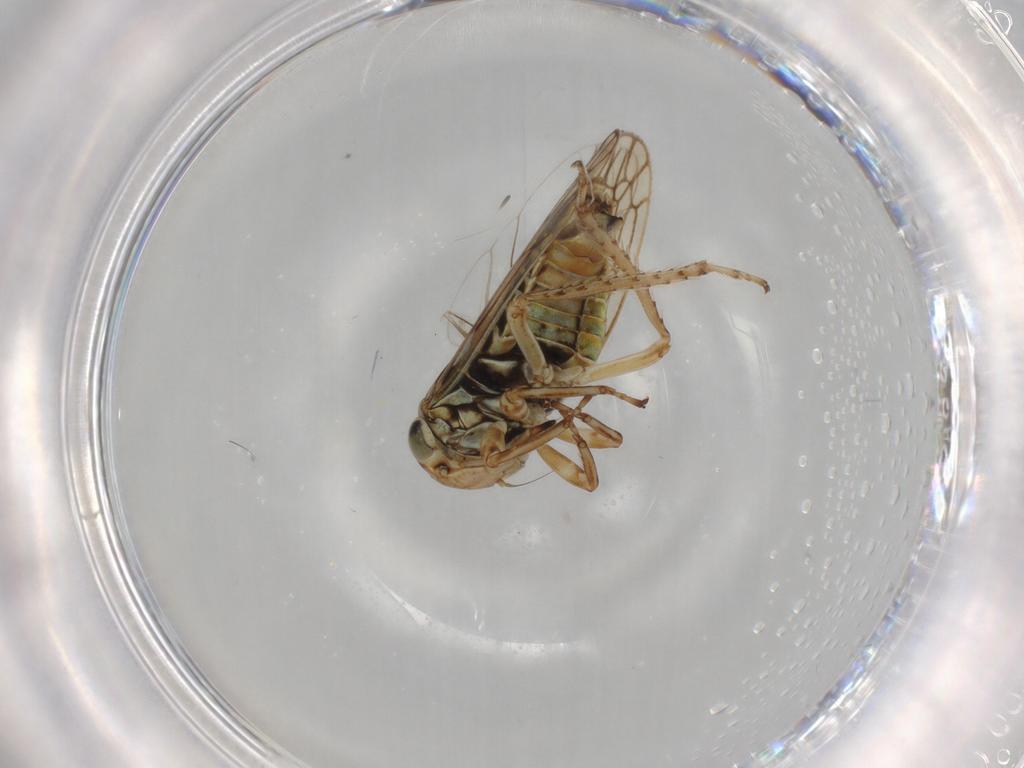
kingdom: Animalia
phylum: Arthropoda
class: Insecta
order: Hemiptera
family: Cicadellidae
